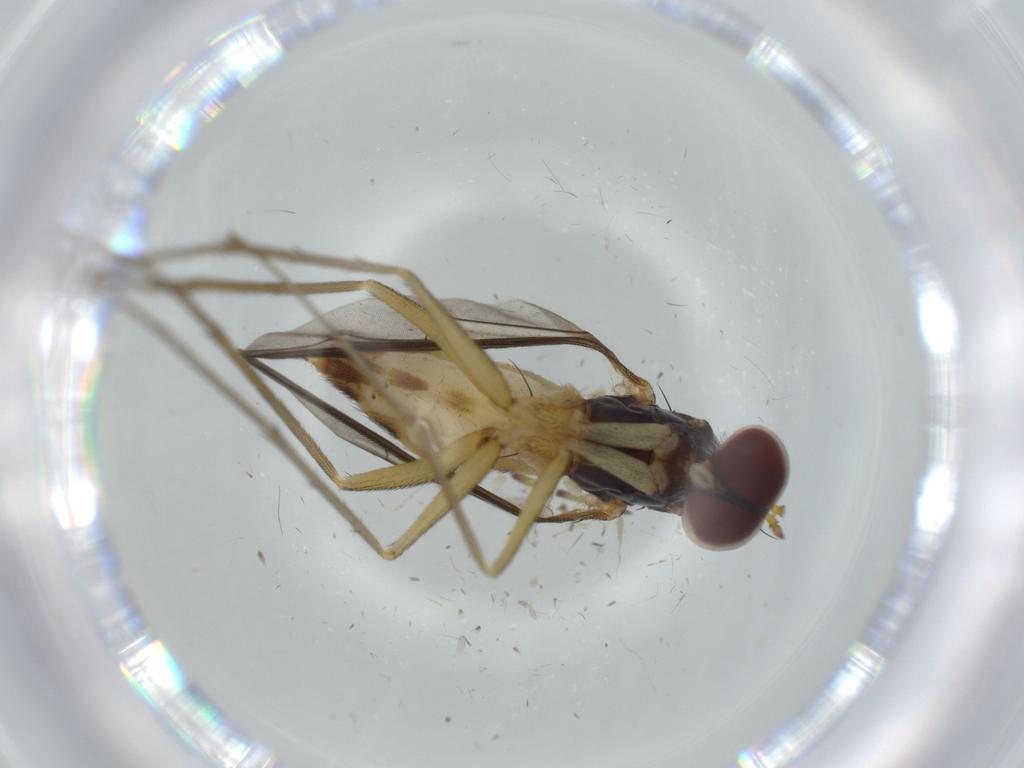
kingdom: Animalia
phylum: Arthropoda
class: Insecta
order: Diptera
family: Cecidomyiidae
